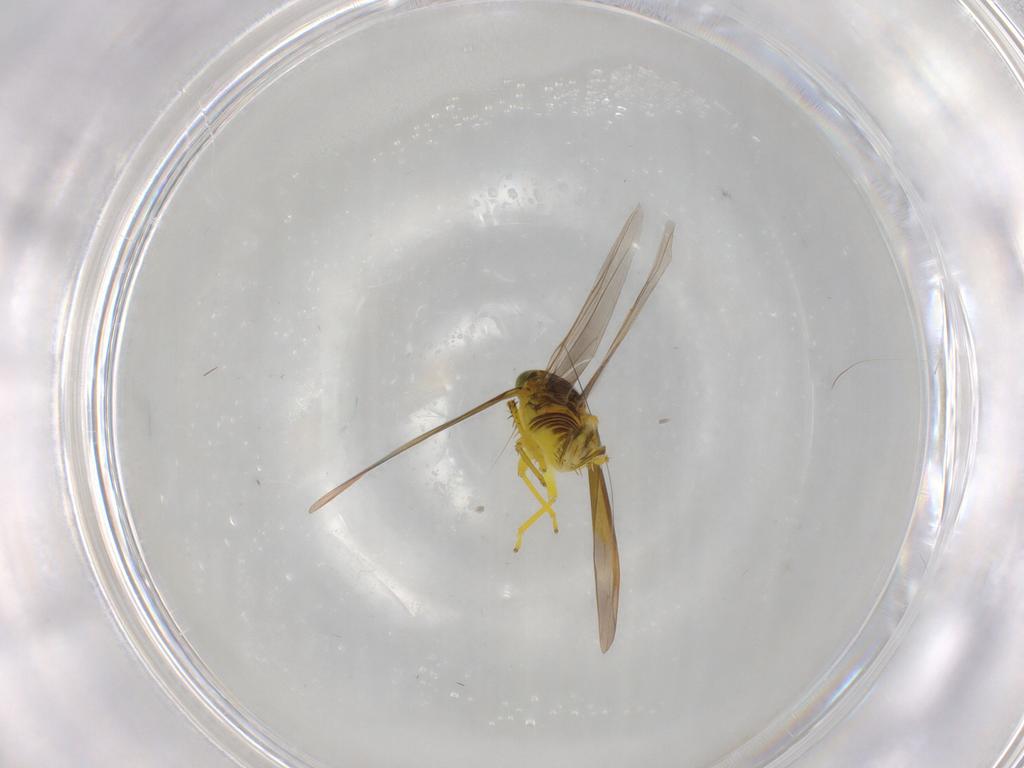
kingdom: Animalia
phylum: Arthropoda
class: Insecta
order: Hemiptera
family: Cicadellidae
